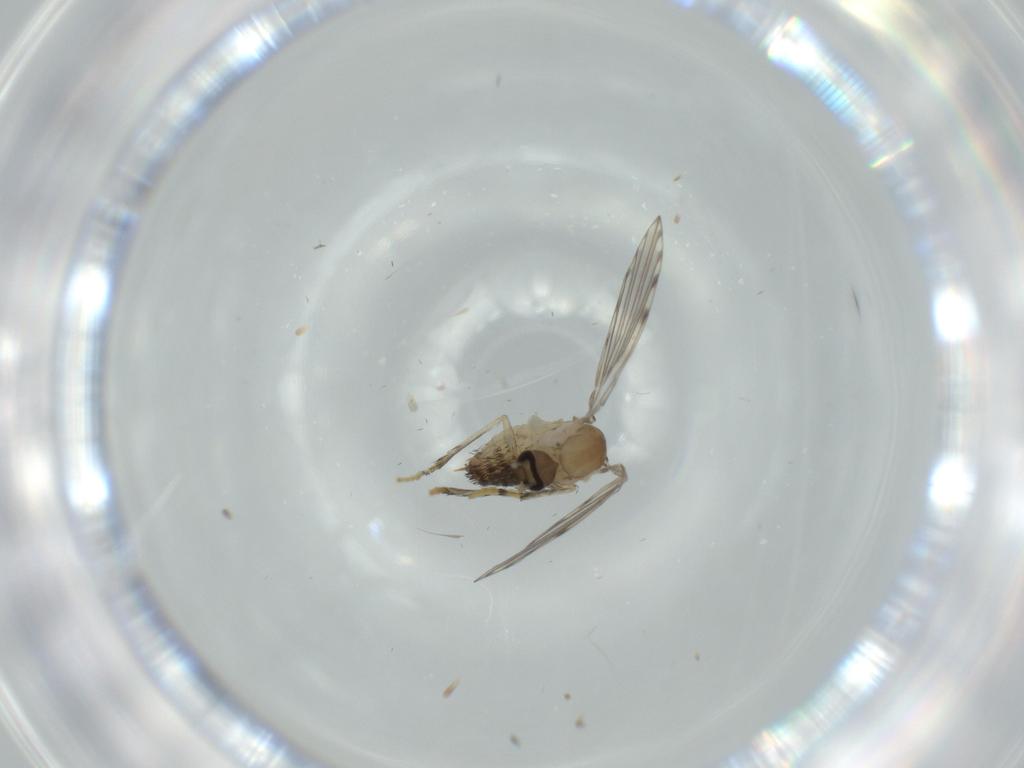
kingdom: Animalia
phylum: Arthropoda
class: Insecta
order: Diptera
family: Psychodidae
